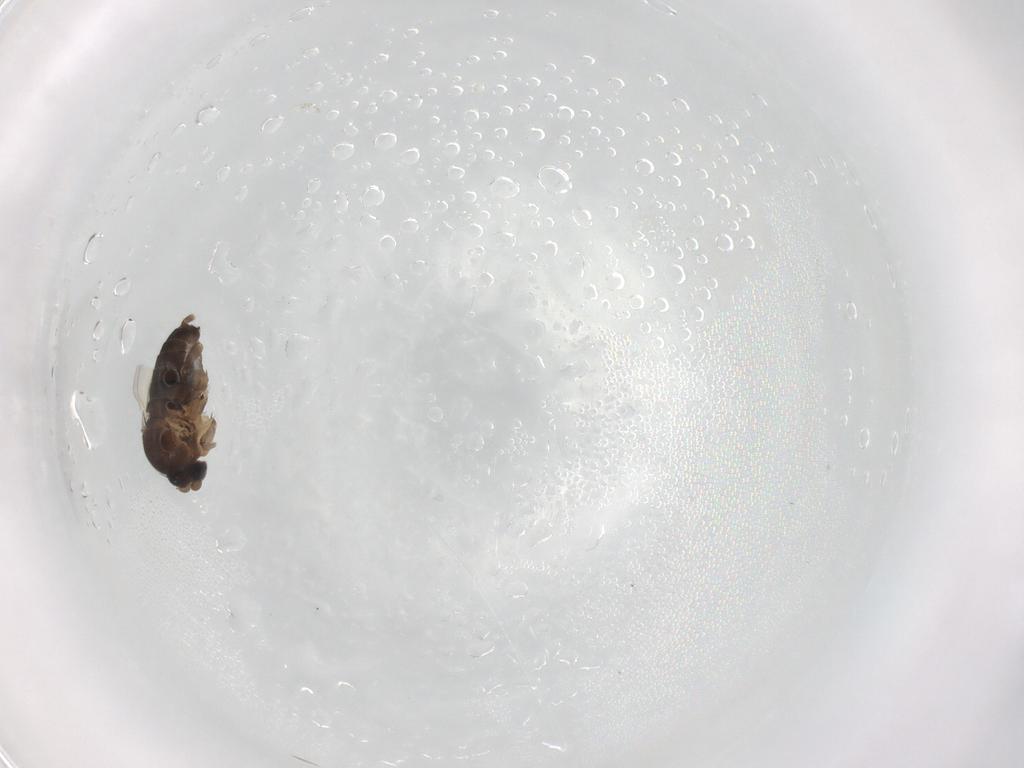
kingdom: Animalia
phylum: Arthropoda
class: Insecta
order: Diptera
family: Phoridae
